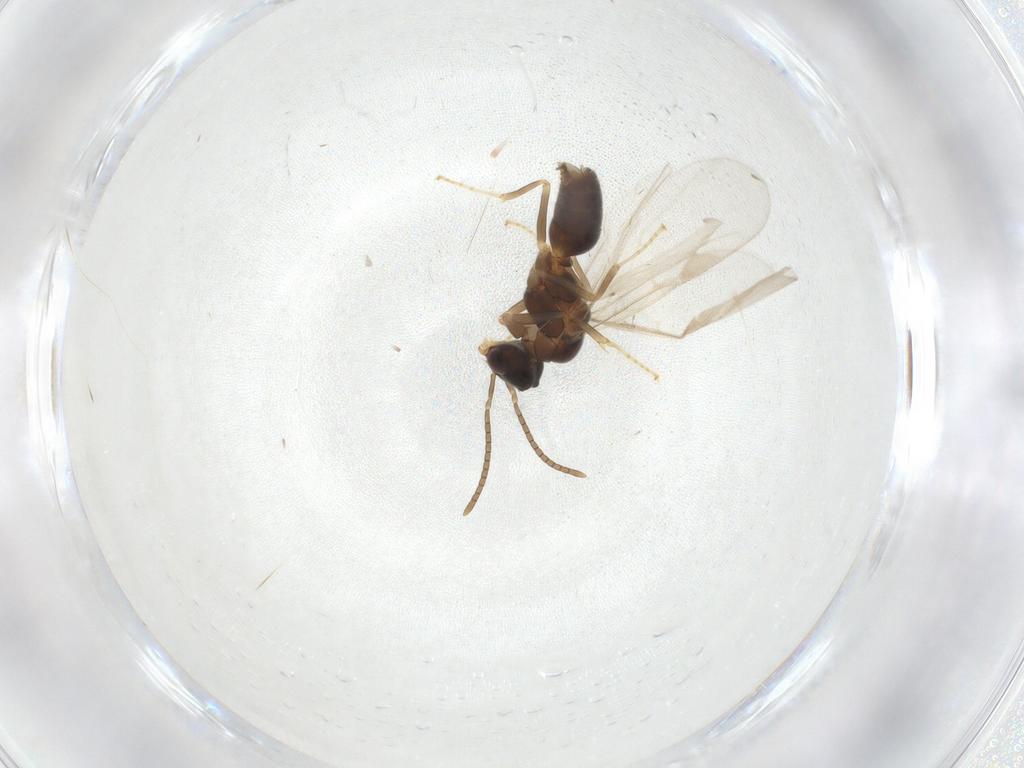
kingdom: Animalia
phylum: Arthropoda
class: Insecta
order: Hymenoptera
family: Formicidae
